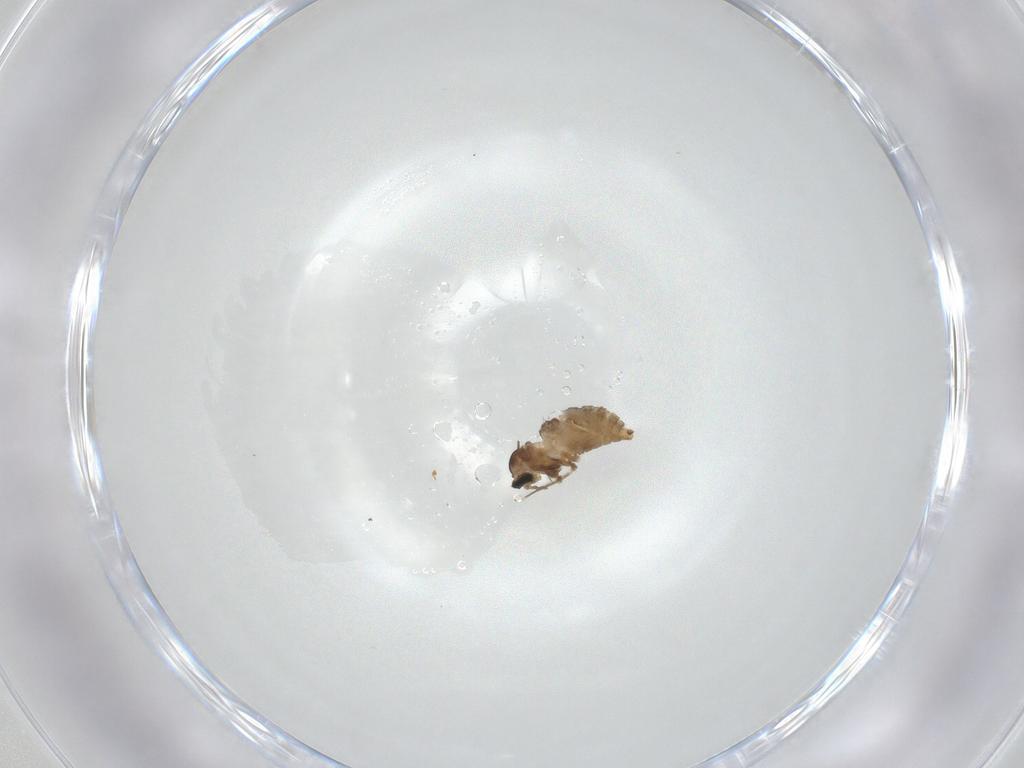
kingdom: Animalia
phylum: Arthropoda
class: Insecta
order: Diptera
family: Cecidomyiidae
